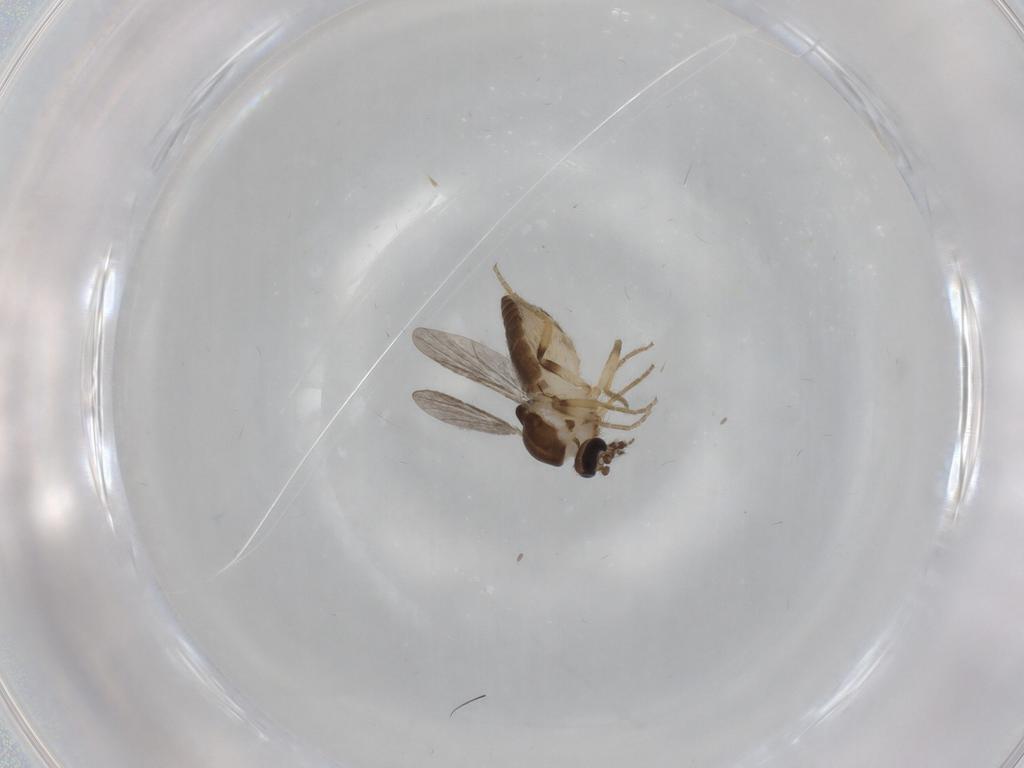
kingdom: Animalia
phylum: Arthropoda
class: Insecta
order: Diptera
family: Ceratopogonidae
